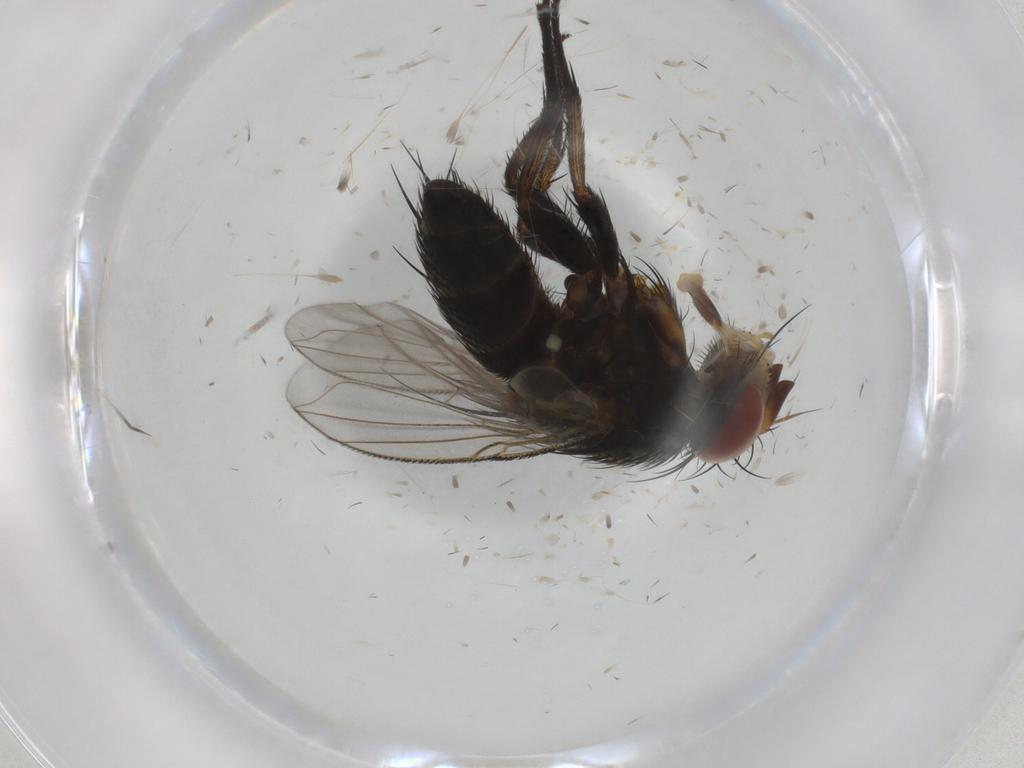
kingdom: Animalia
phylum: Arthropoda
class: Insecta
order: Diptera
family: Tachinidae
